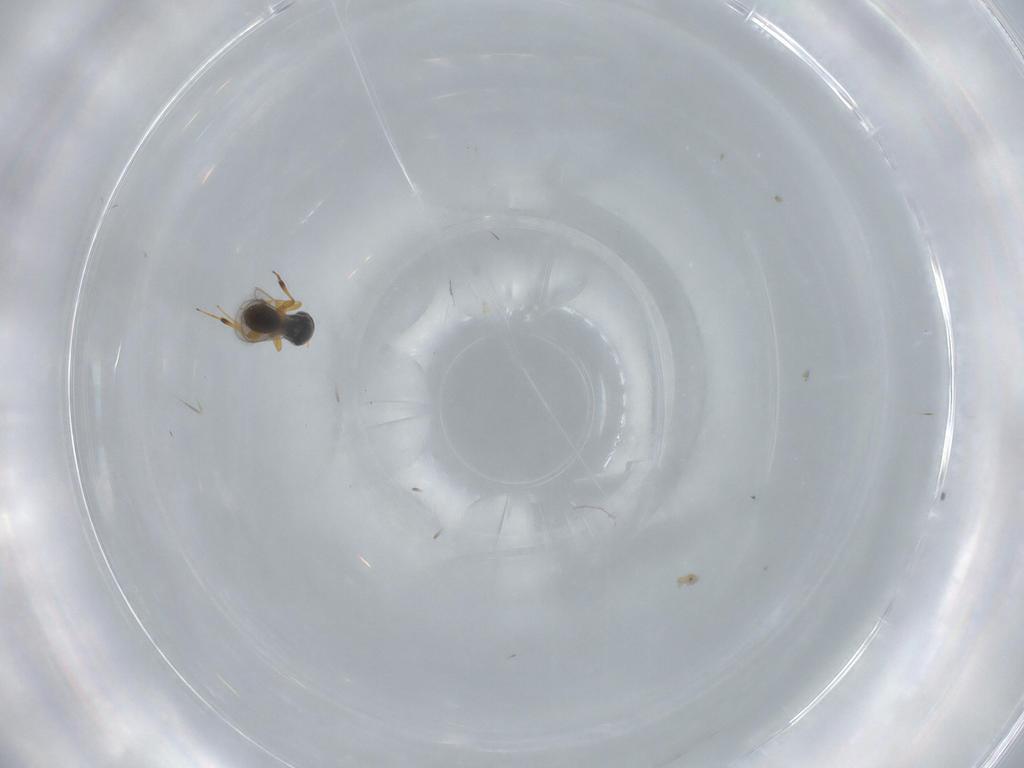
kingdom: Animalia
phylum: Arthropoda
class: Insecta
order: Hymenoptera
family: Platygastridae
